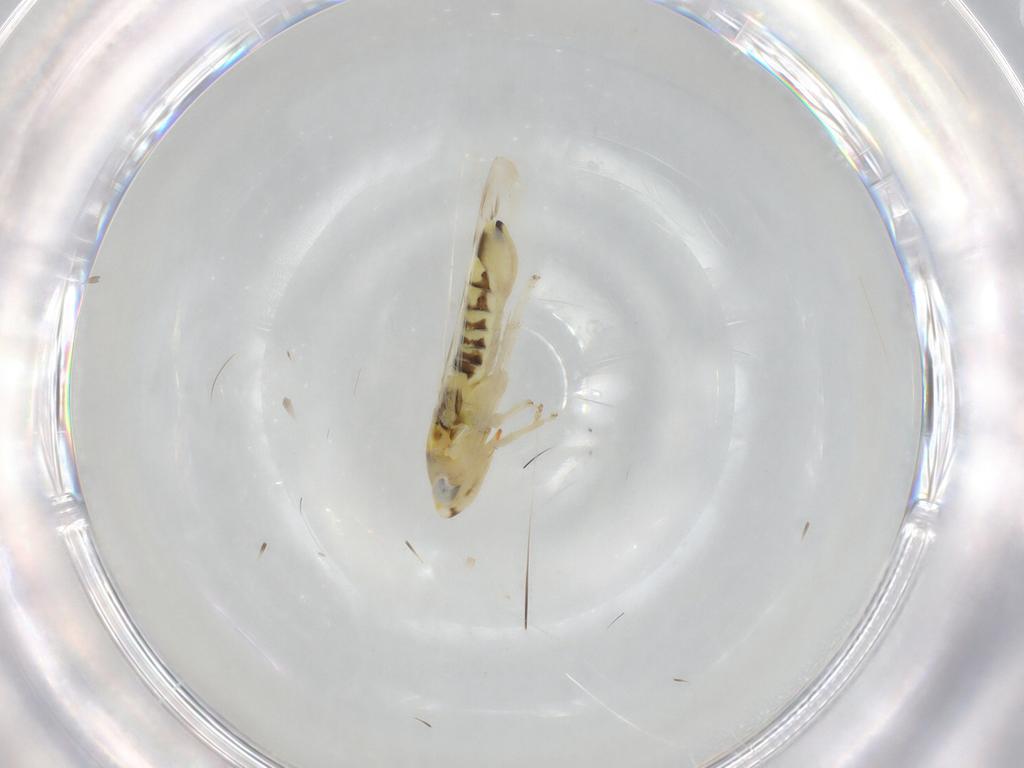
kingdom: Animalia
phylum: Arthropoda
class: Insecta
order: Hemiptera
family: Cicadellidae
